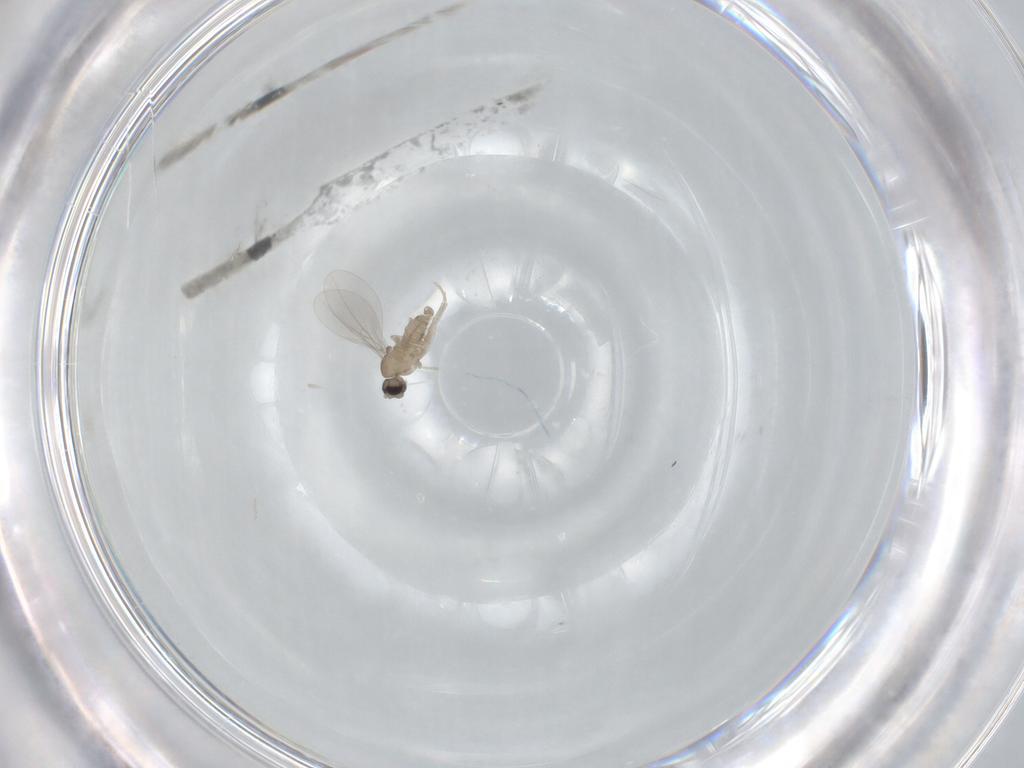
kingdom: Animalia
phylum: Arthropoda
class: Insecta
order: Diptera
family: Cecidomyiidae
